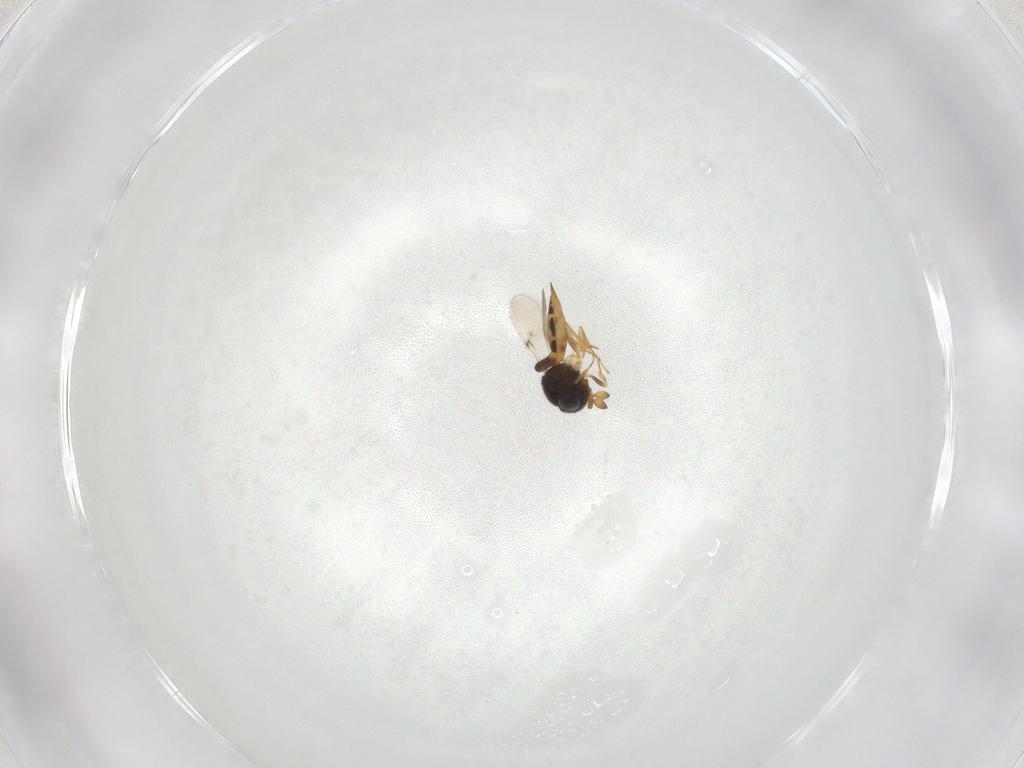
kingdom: Animalia
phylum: Arthropoda
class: Insecta
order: Hymenoptera
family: Scelionidae
